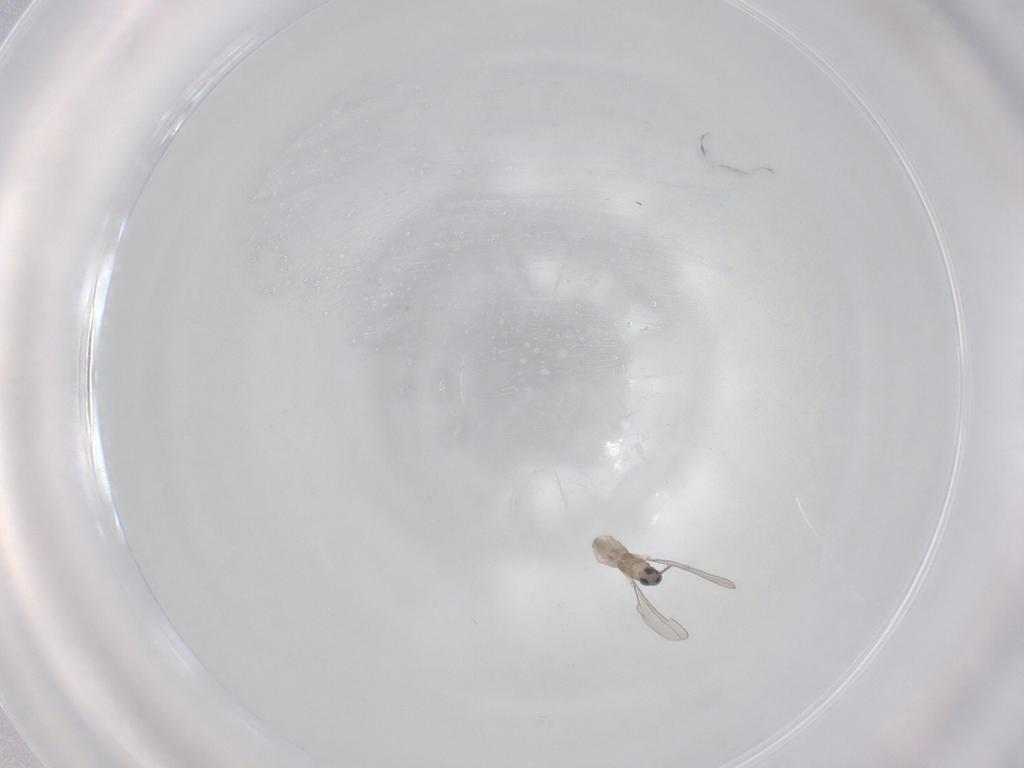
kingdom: Animalia
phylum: Arthropoda
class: Insecta
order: Diptera
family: Cecidomyiidae
